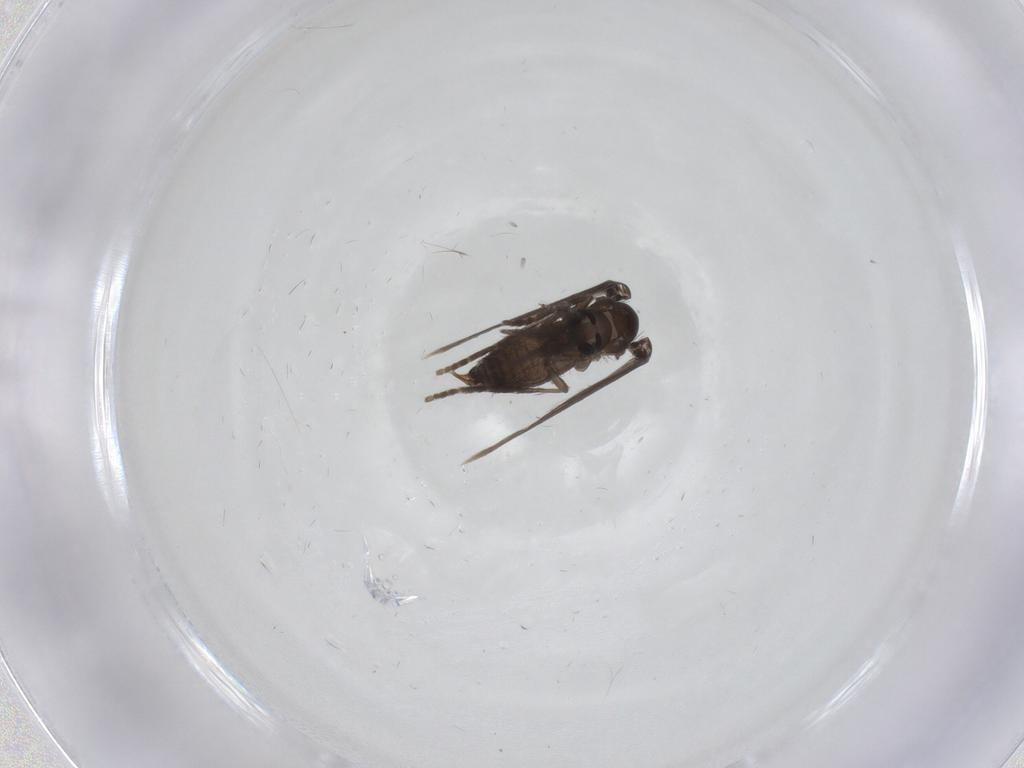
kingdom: Animalia
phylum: Arthropoda
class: Insecta
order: Diptera
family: Psychodidae
